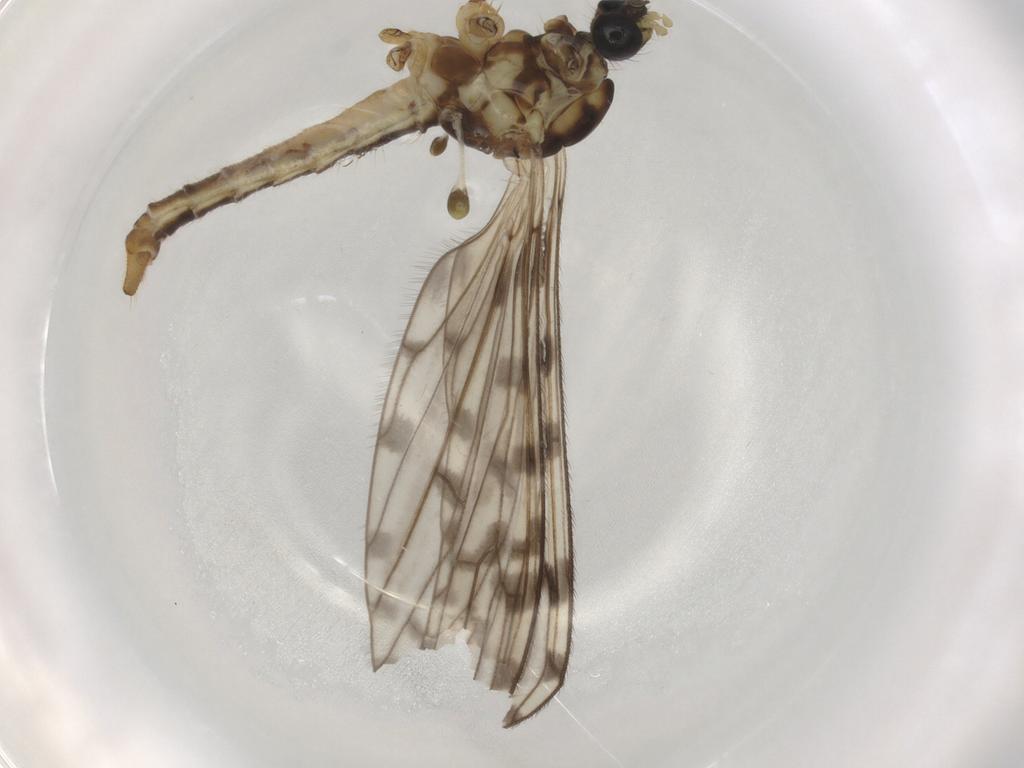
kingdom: Animalia
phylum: Arthropoda
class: Insecta
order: Diptera
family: Sciaridae
